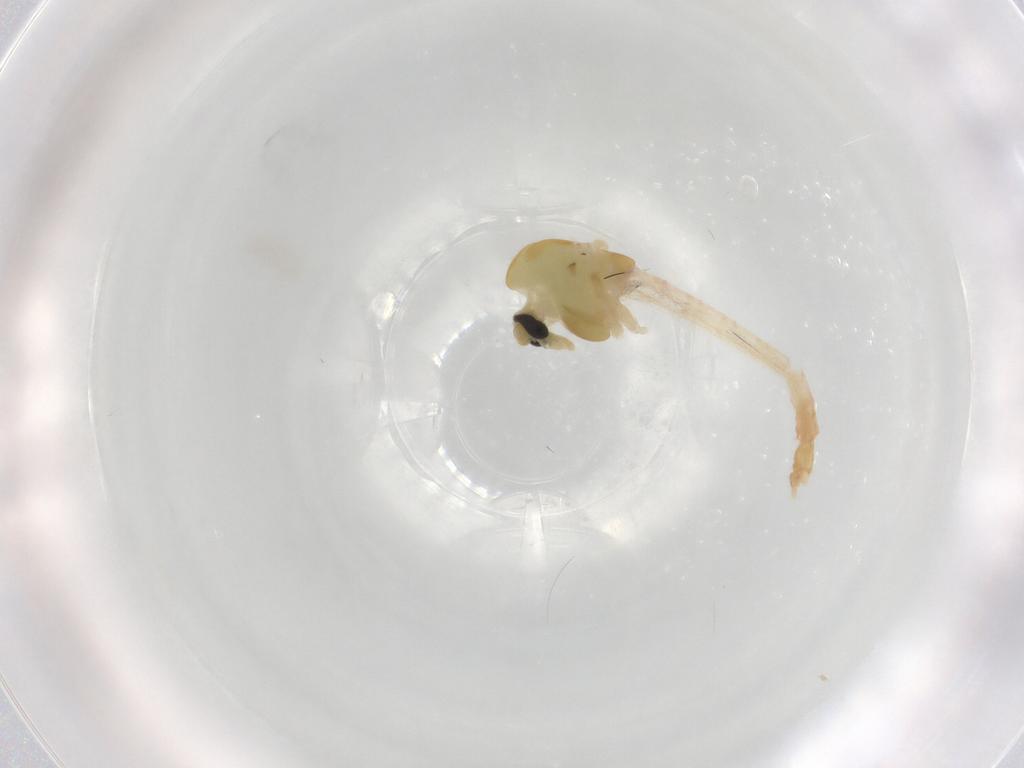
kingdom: Animalia
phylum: Arthropoda
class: Insecta
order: Diptera
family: Chironomidae
